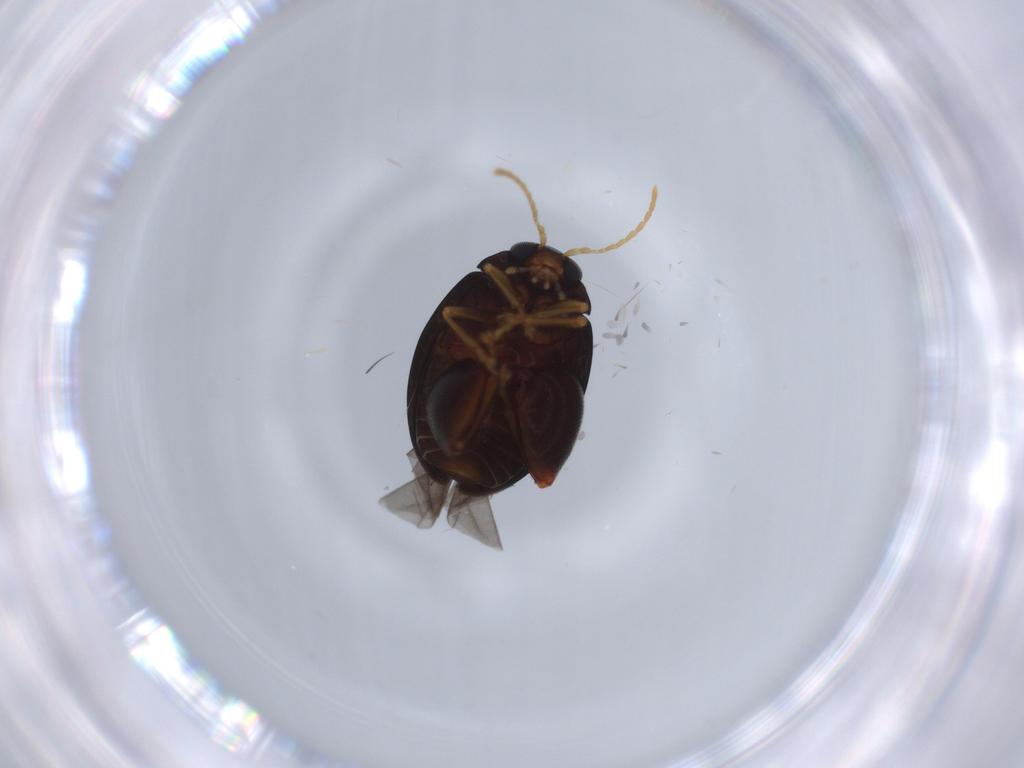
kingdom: Animalia
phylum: Arthropoda
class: Insecta
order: Coleoptera
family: Chrysomelidae
